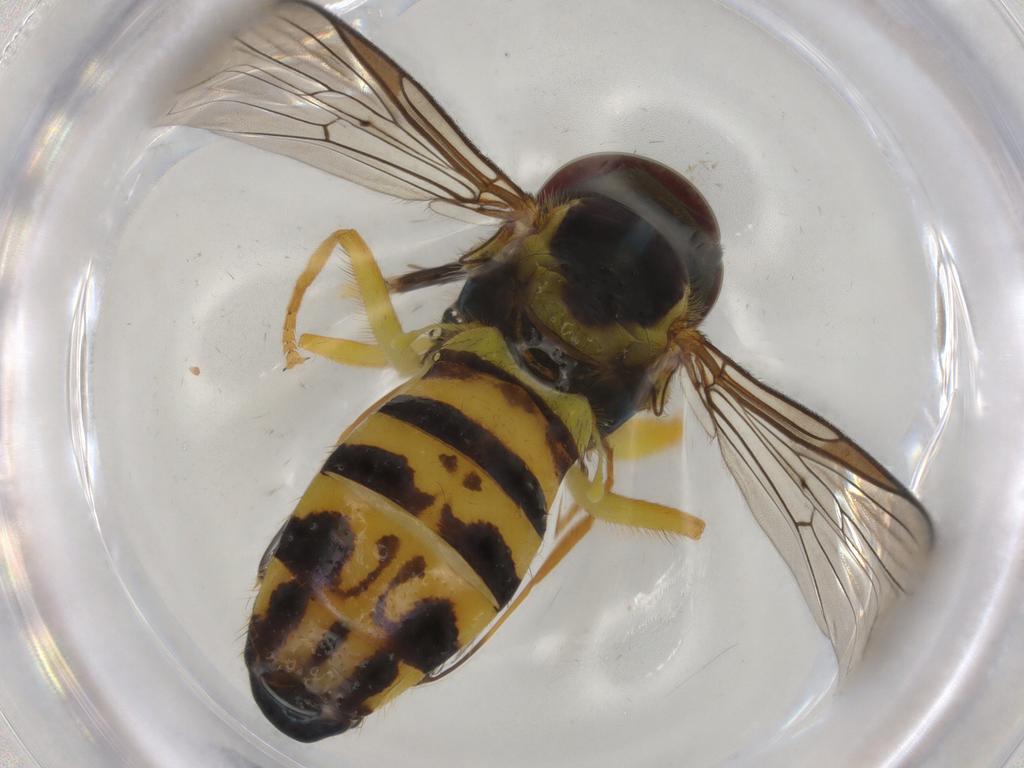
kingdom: Animalia
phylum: Arthropoda
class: Insecta
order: Diptera
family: Syrphidae
